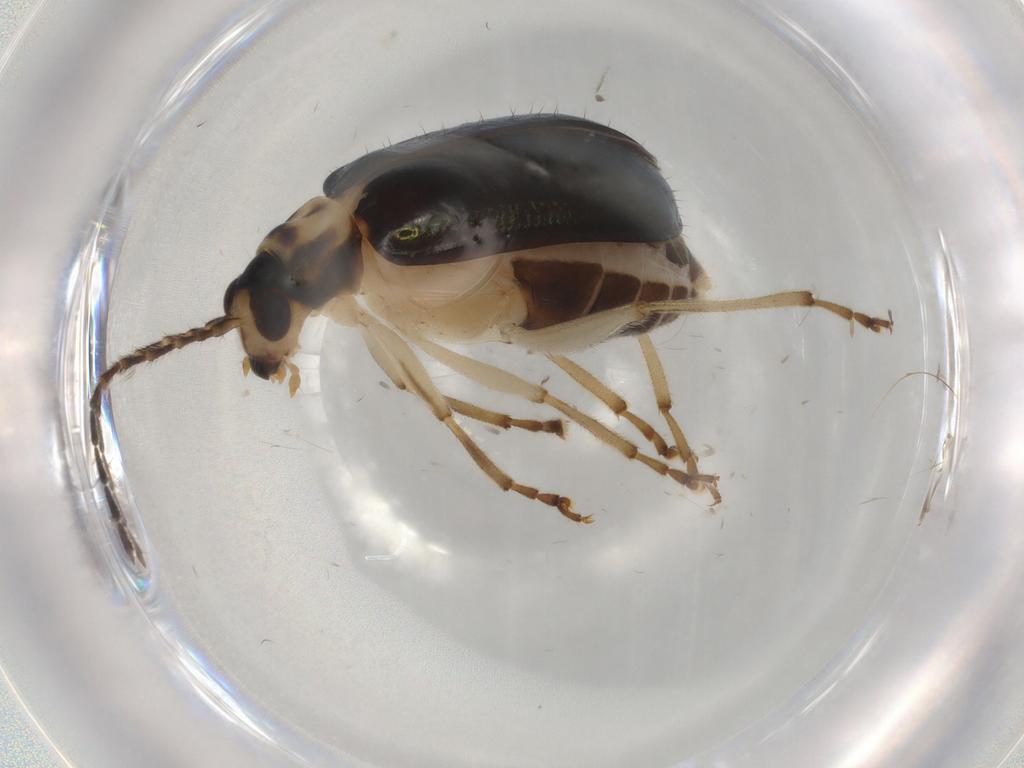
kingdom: Animalia
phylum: Arthropoda
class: Insecta
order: Coleoptera
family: Chrysomelidae
